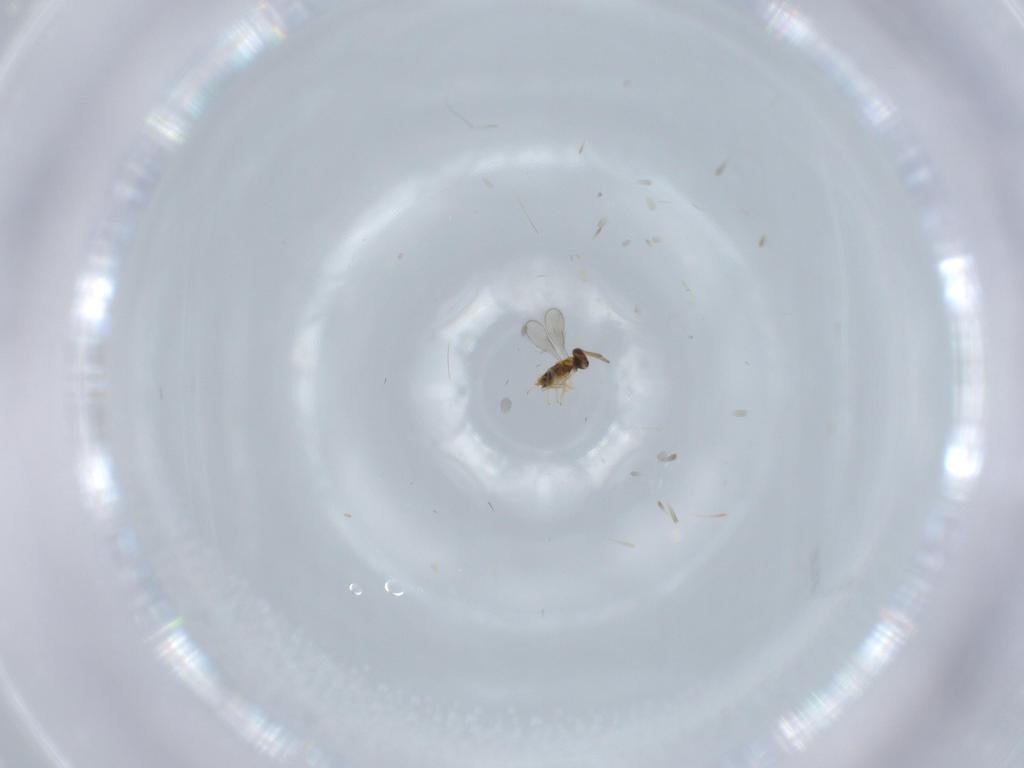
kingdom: Animalia
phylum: Arthropoda
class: Insecta
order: Hymenoptera
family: Aphelinidae
